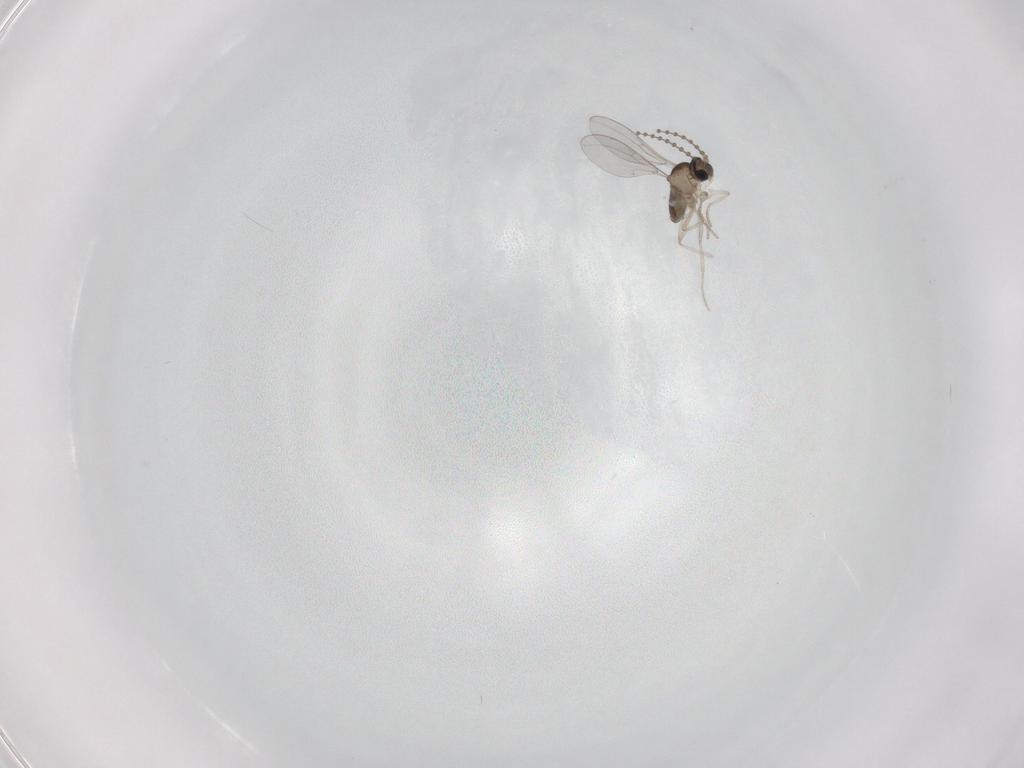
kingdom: Animalia
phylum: Arthropoda
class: Insecta
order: Diptera
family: Cecidomyiidae
